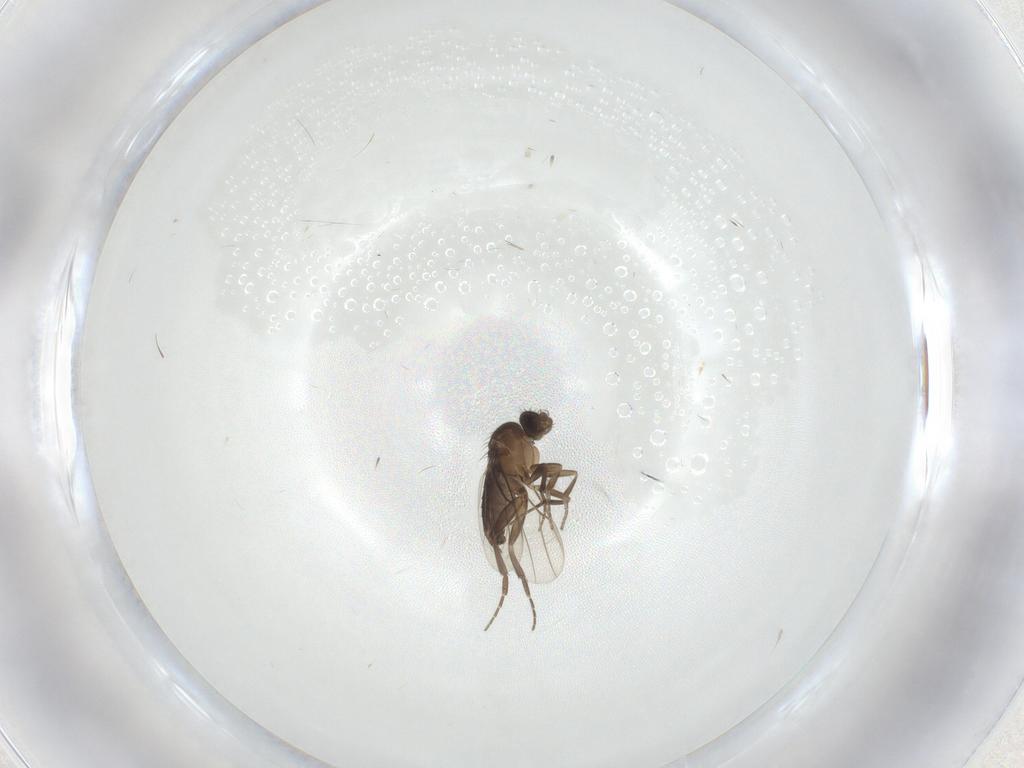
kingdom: Animalia
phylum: Arthropoda
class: Insecta
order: Diptera
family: Cecidomyiidae
